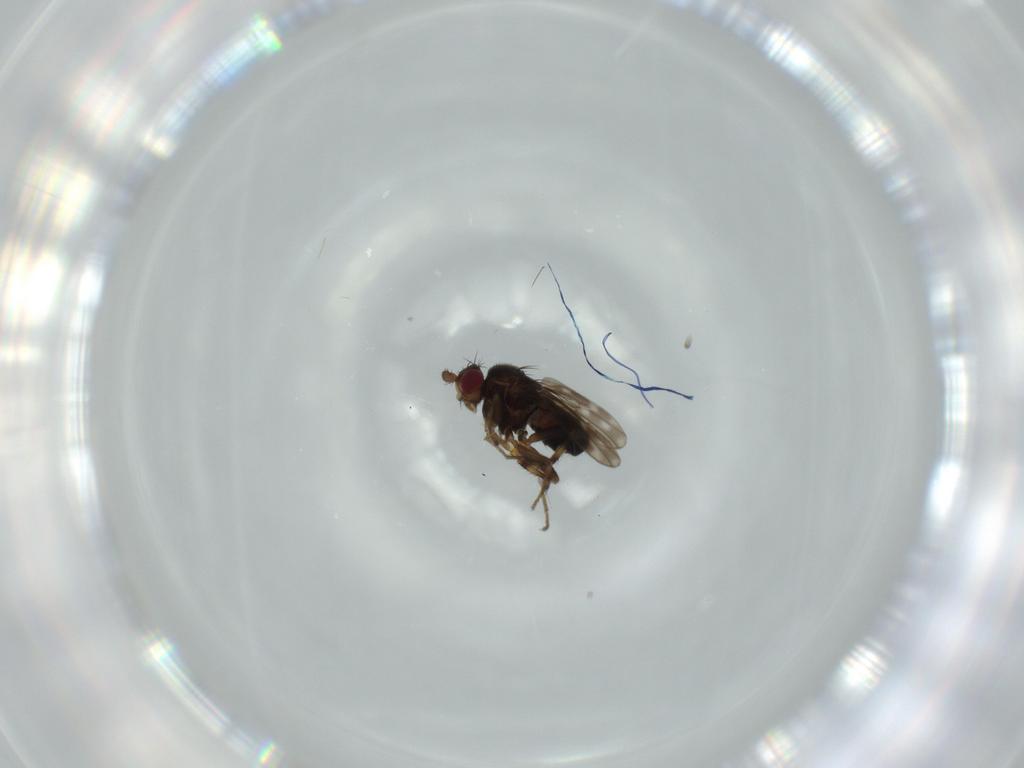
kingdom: Animalia
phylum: Arthropoda
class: Insecta
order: Diptera
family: Sphaeroceridae
